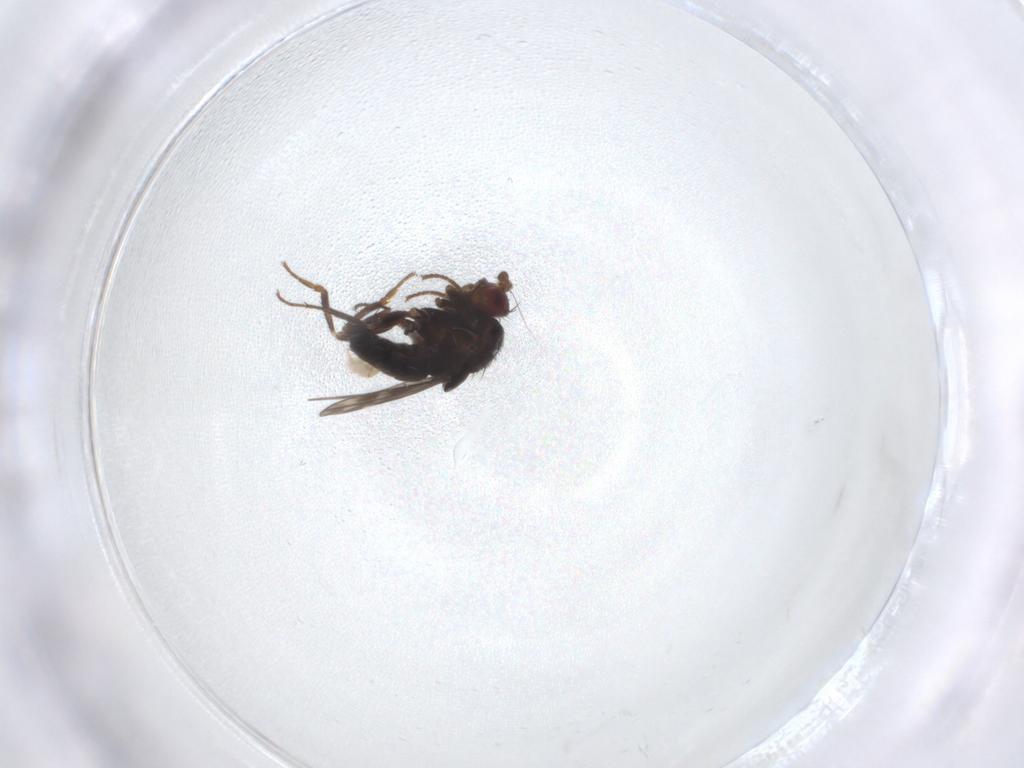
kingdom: Animalia
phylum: Arthropoda
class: Insecta
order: Diptera
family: Sphaeroceridae
